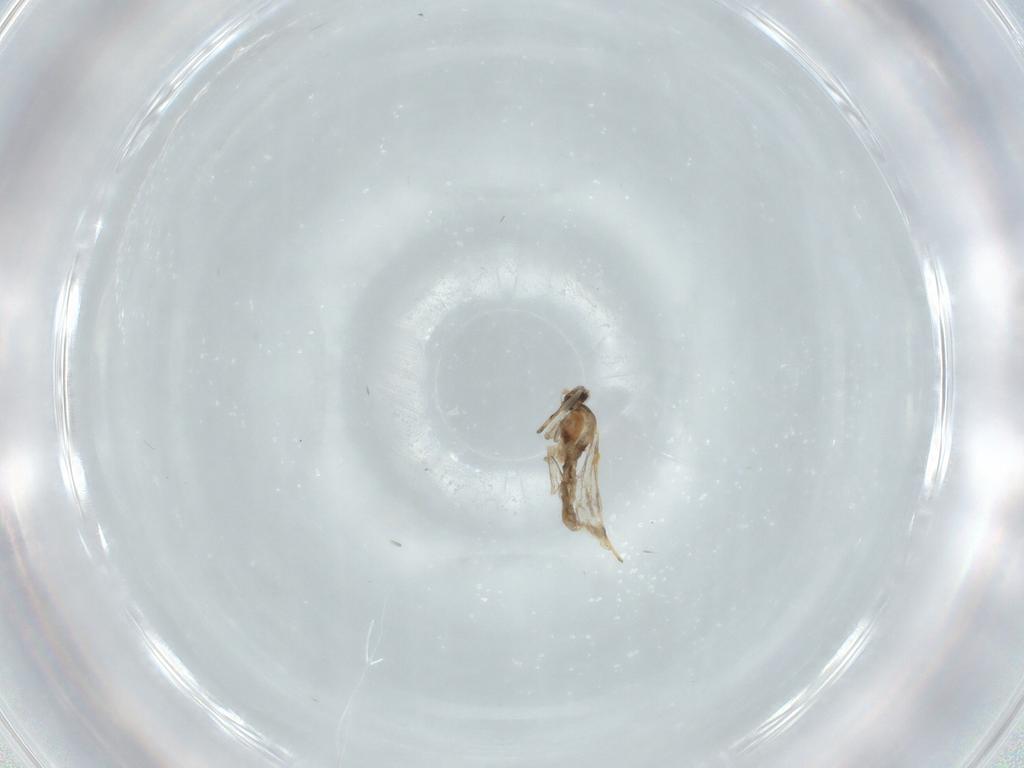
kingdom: Animalia
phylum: Arthropoda
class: Insecta
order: Diptera
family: Cecidomyiidae
